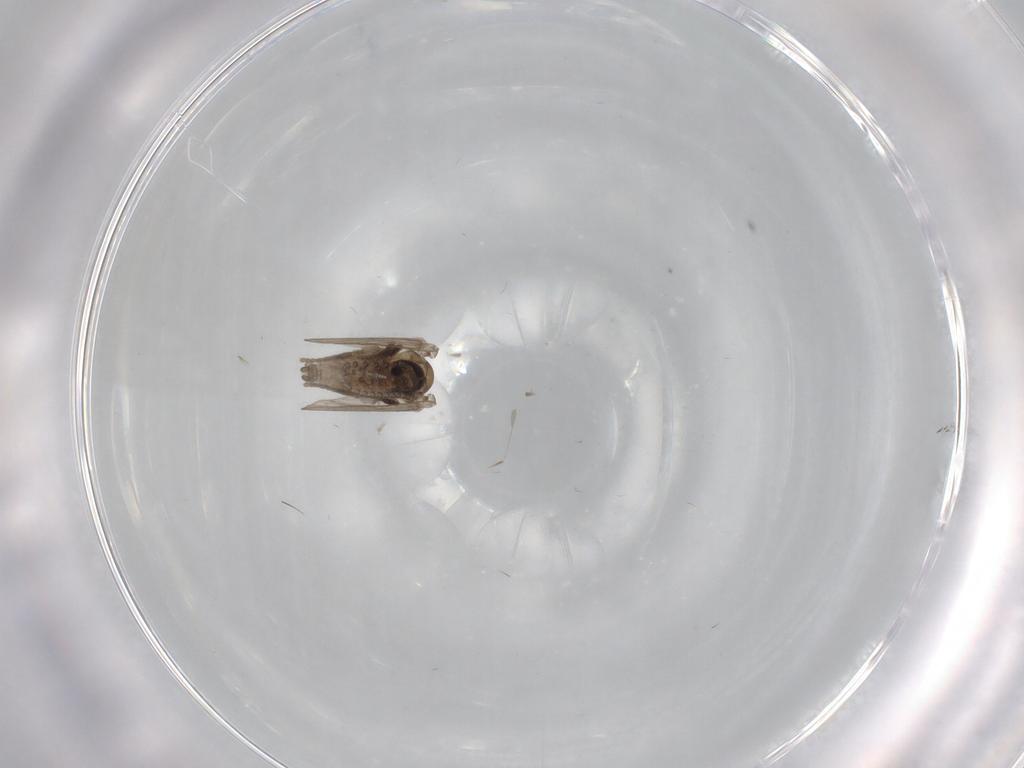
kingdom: Animalia
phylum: Arthropoda
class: Insecta
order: Diptera
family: Psychodidae
